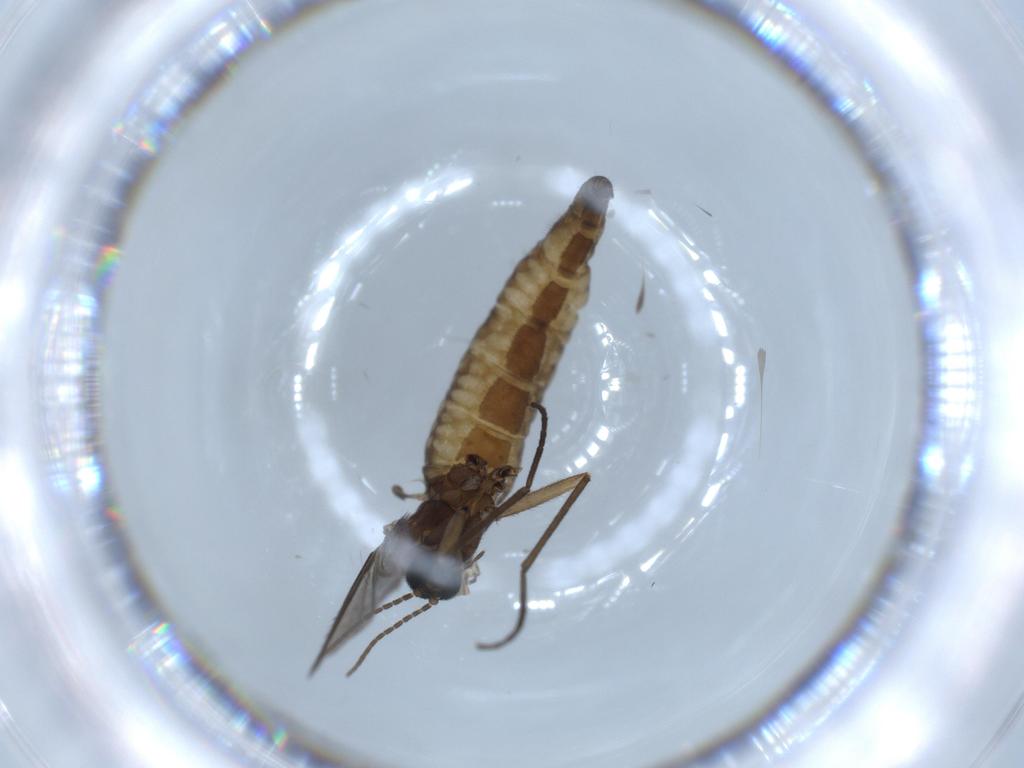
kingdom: Animalia
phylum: Arthropoda
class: Insecta
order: Diptera
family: Sciaridae
